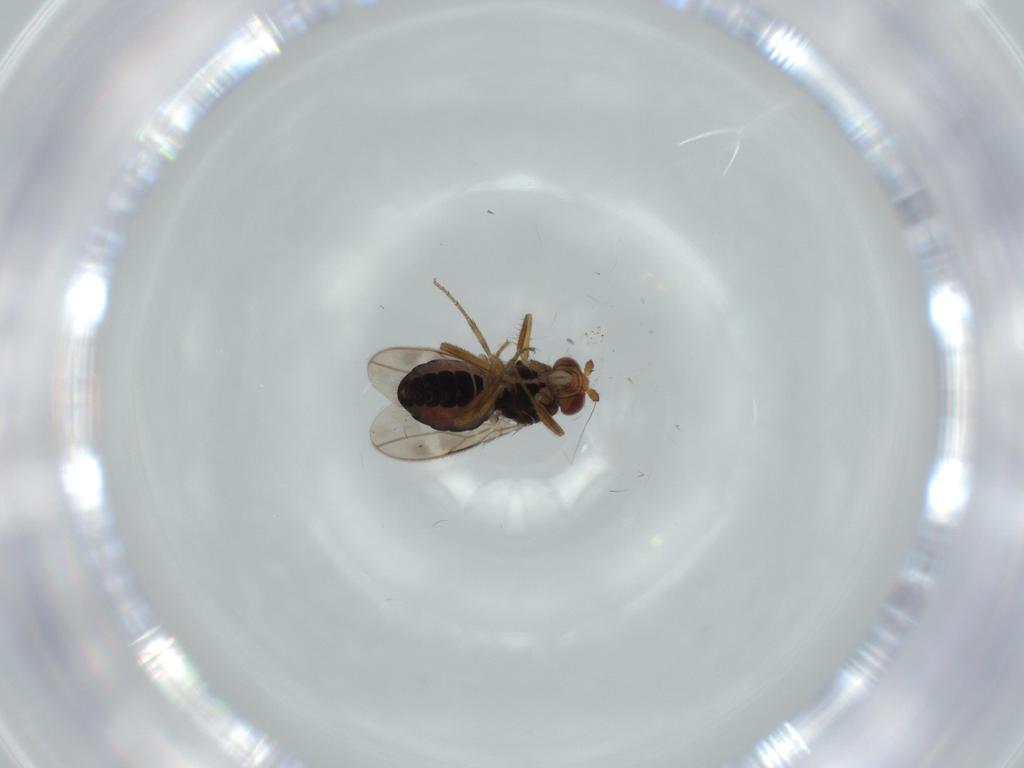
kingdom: Animalia
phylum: Arthropoda
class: Insecta
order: Diptera
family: Sphaeroceridae
